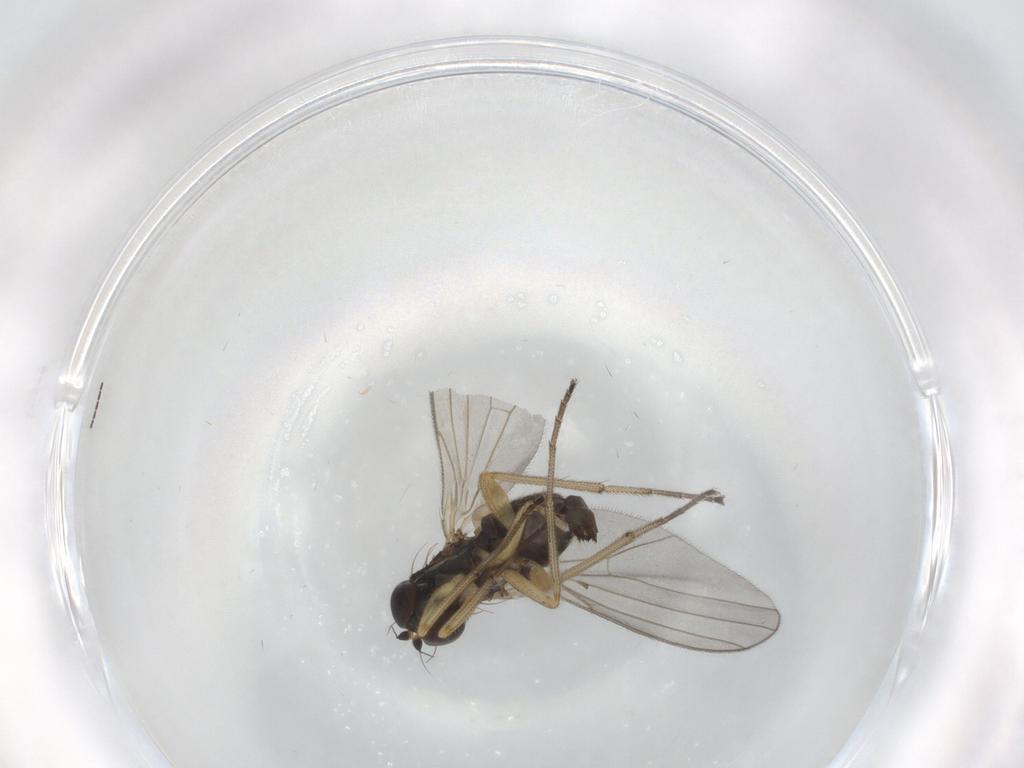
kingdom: Animalia
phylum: Arthropoda
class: Insecta
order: Diptera
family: Dolichopodidae
